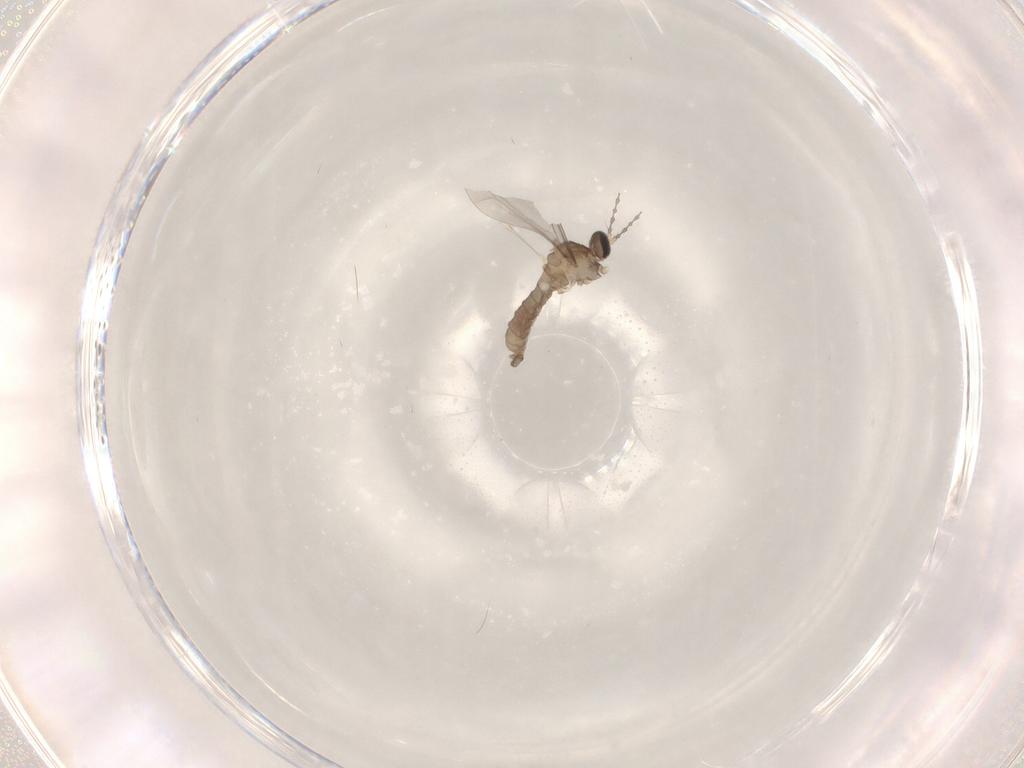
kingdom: Animalia
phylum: Arthropoda
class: Insecta
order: Diptera
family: Cecidomyiidae
